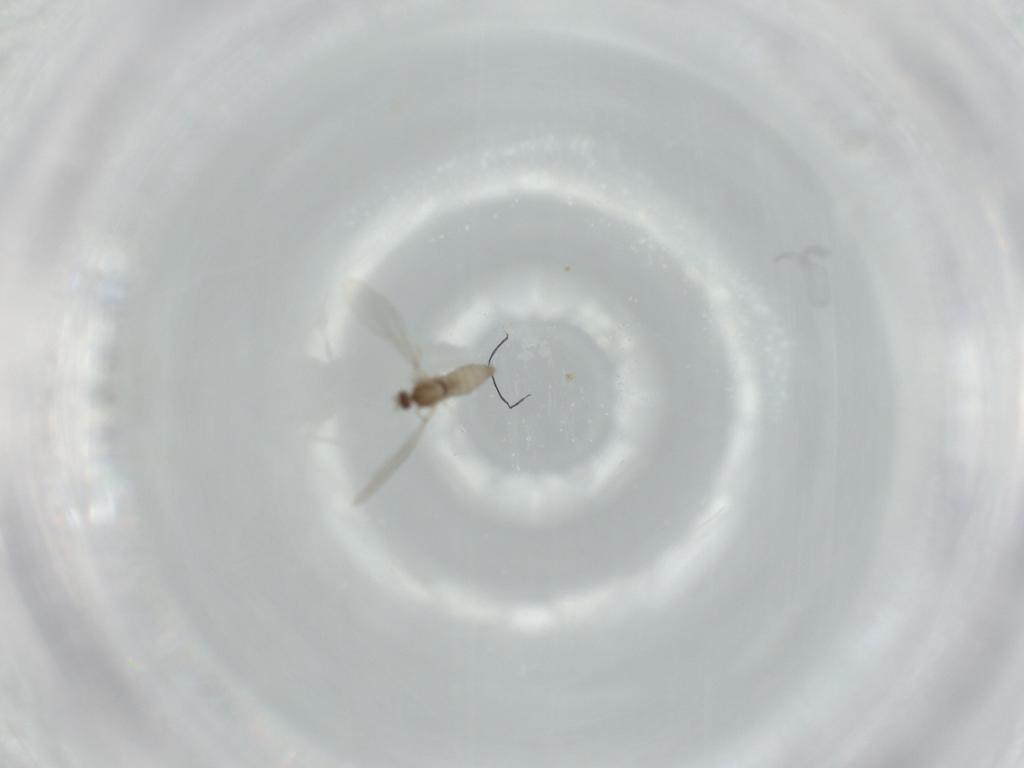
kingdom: Animalia
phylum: Arthropoda
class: Insecta
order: Diptera
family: Cecidomyiidae
